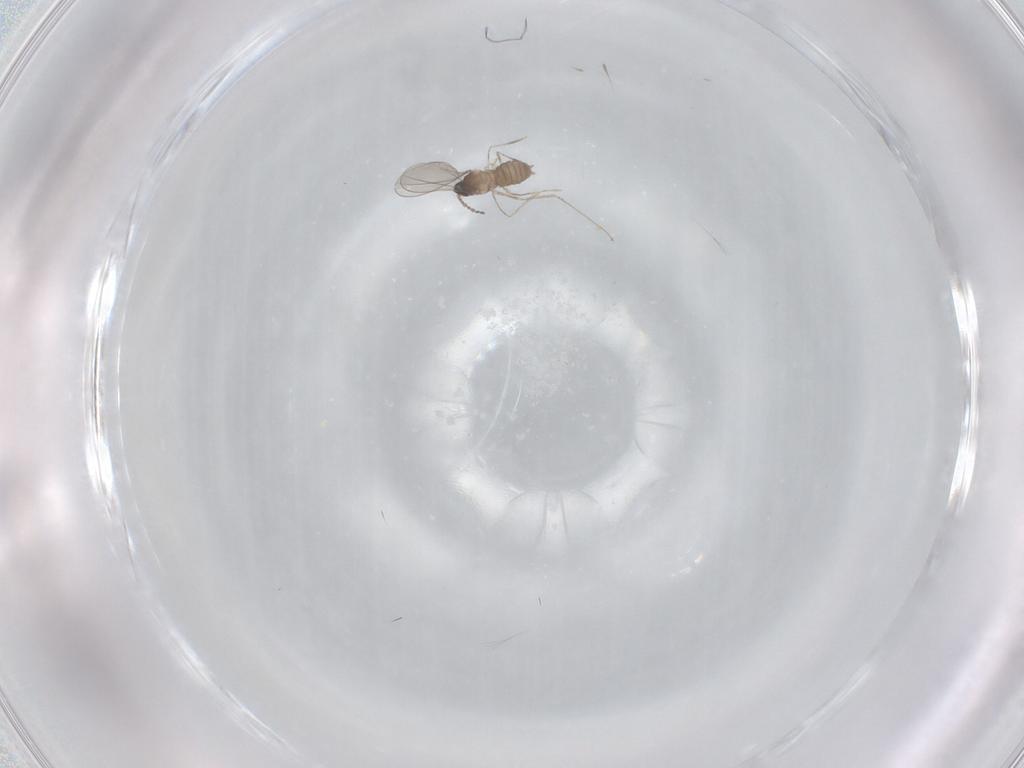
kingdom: Animalia
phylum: Arthropoda
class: Insecta
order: Diptera
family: Cecidomyiidae
